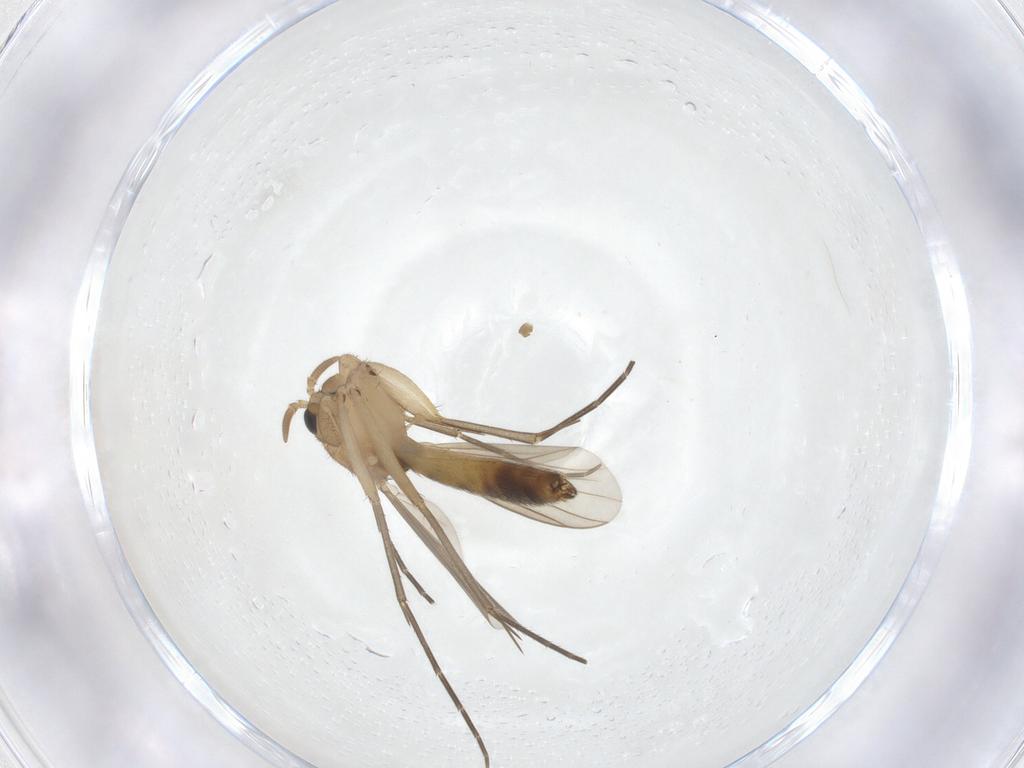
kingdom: Animalia
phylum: Arthropoda
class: Insecta
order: Diptera
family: Mycetophilidae
